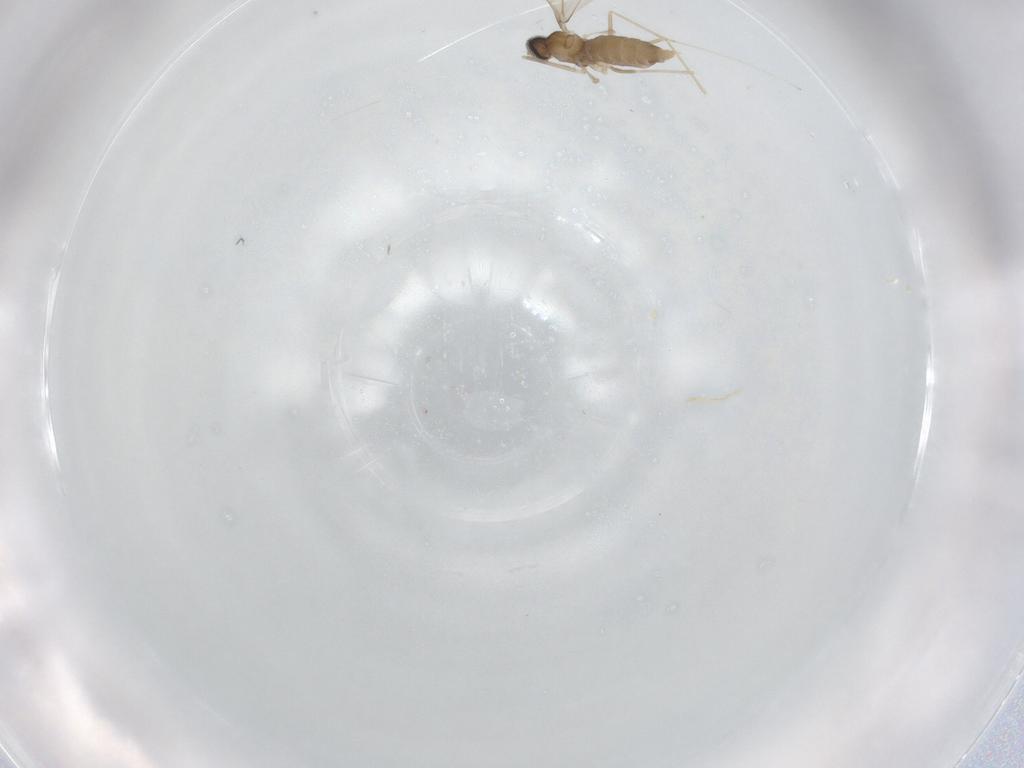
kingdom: Animalia
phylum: Arthropoda
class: Insecta
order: Diptera
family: Cecidomyiidae
